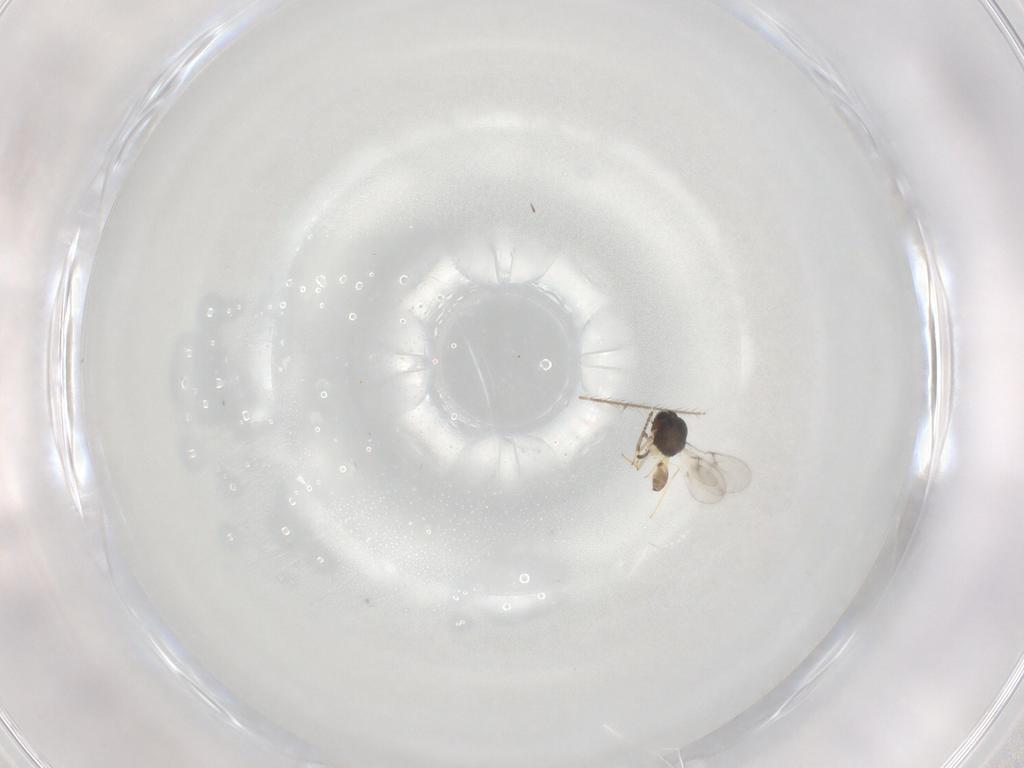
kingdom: Animalia
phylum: Arthropoda
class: Insecta
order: Hymenoptera
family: Scelionidae
